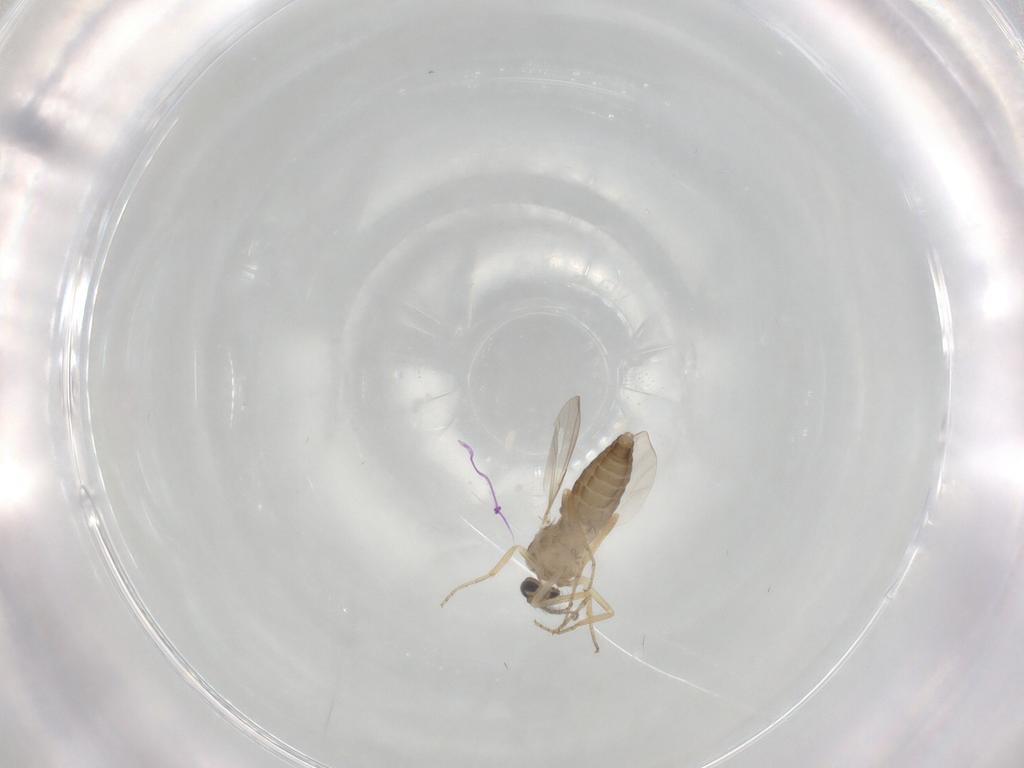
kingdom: Animalia
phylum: Arthropoda
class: Insecta
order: Diptera
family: Ceratopogonidae
